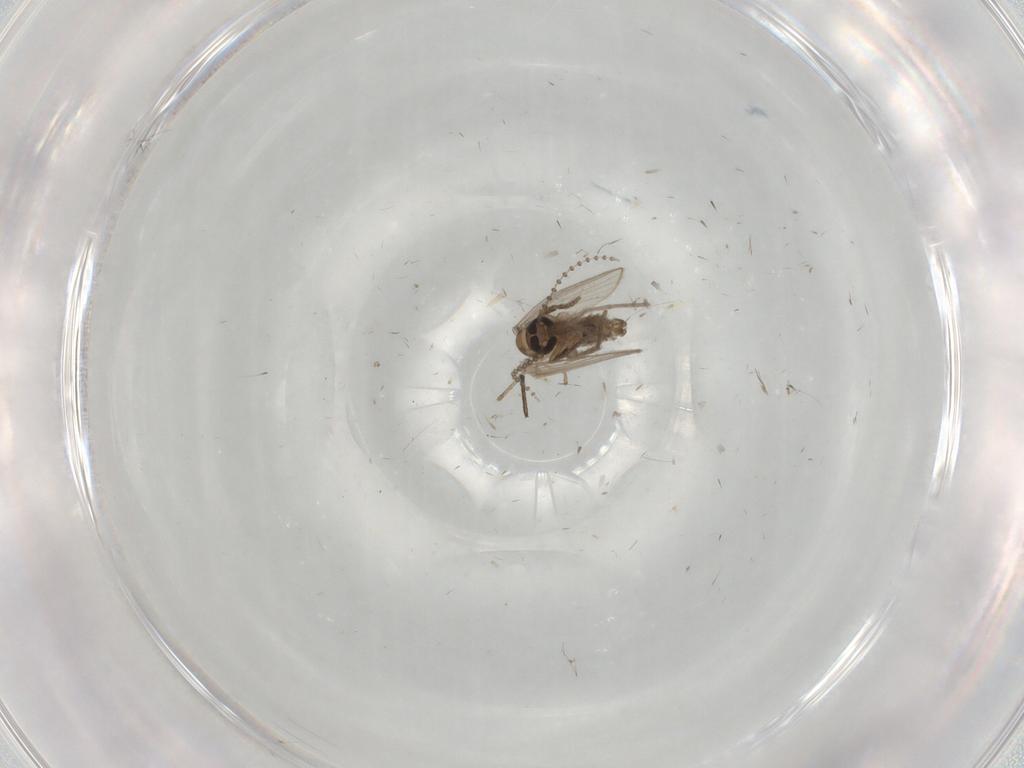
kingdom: Animalia
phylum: Arthropoda
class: Insecta
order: Diptera
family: Psychodidae
